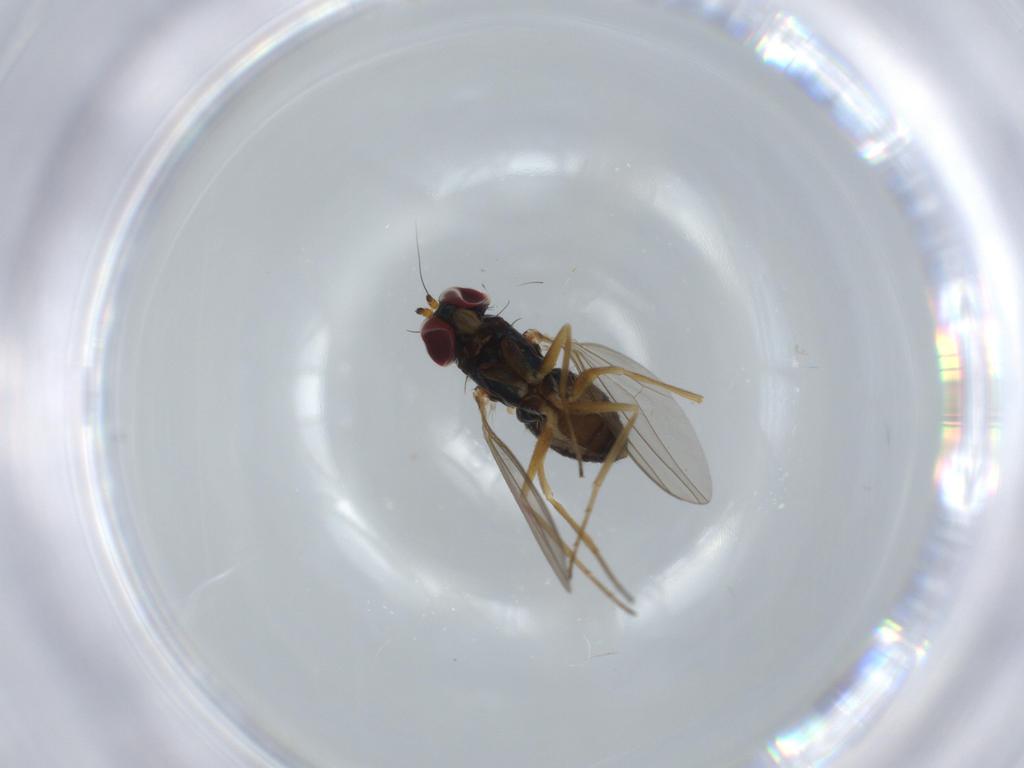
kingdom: Animalia
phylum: Arthropoda
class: Insecta
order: Diptera
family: Dolichopodidae
